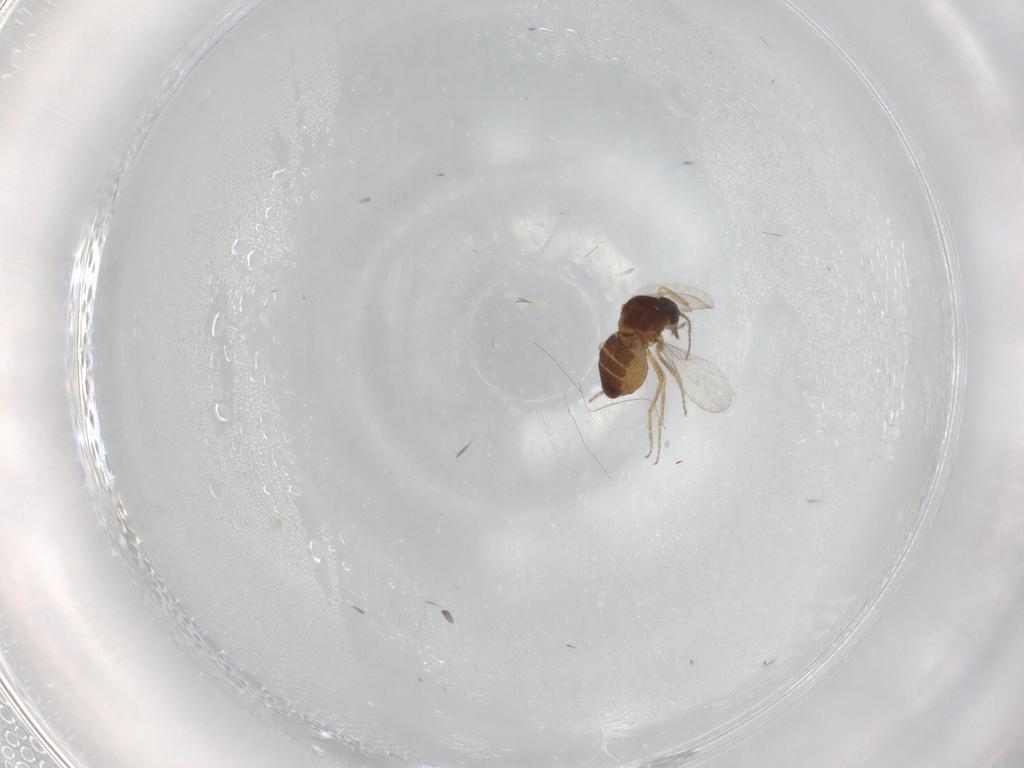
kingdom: Animalia
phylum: Arthropoda
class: Insecta
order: Diptera
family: Ceratopogonidae
